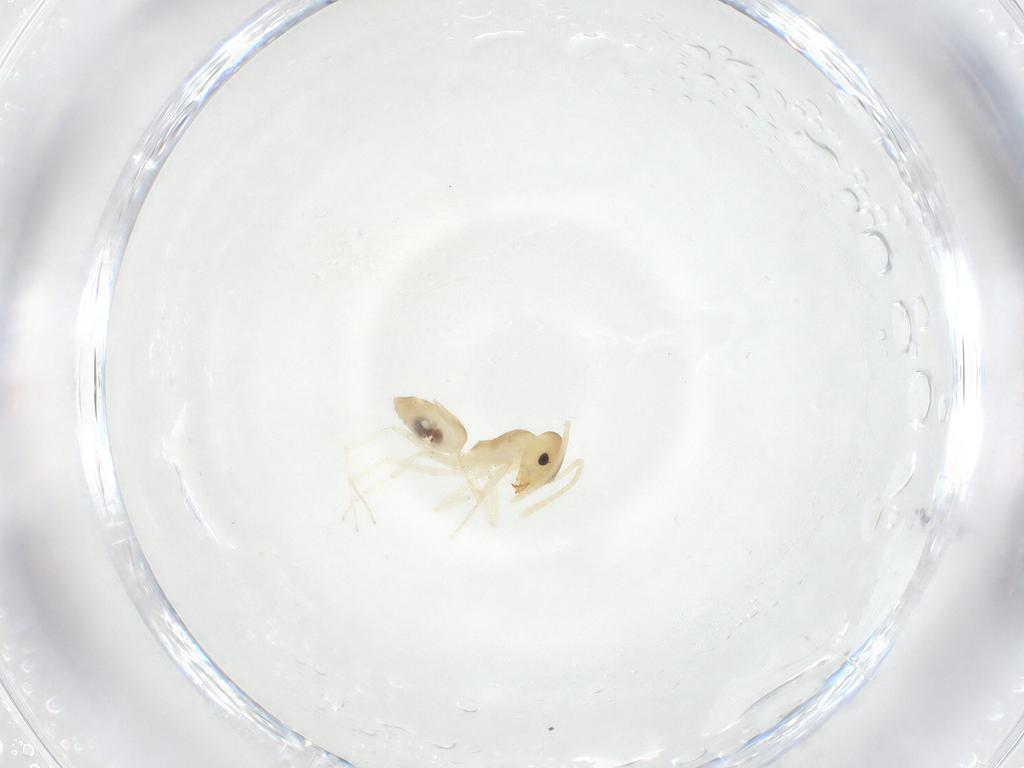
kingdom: Animalia
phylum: Arthropoda
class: Insecta
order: Hymenoptera
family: Formicidae
